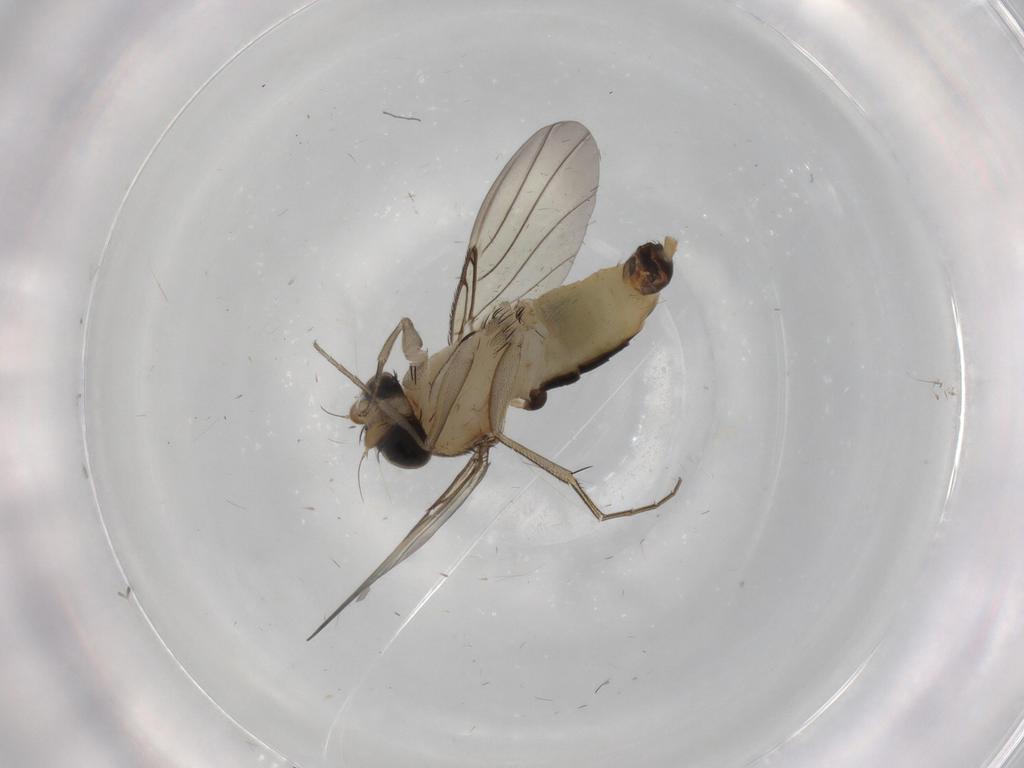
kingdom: Animalia
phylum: Arthropoda
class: Insecta
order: Diptera
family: Phoridae
